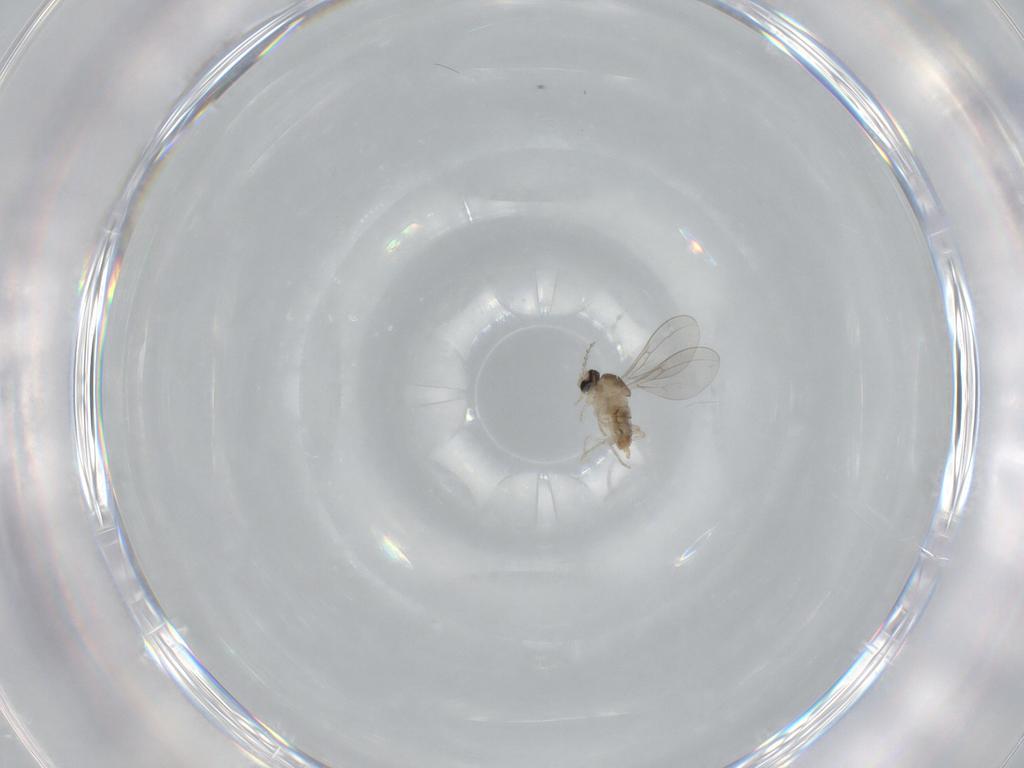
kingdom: Animalia
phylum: Arthropoda
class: Insecta
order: Diptera
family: Cecidomyiidae
